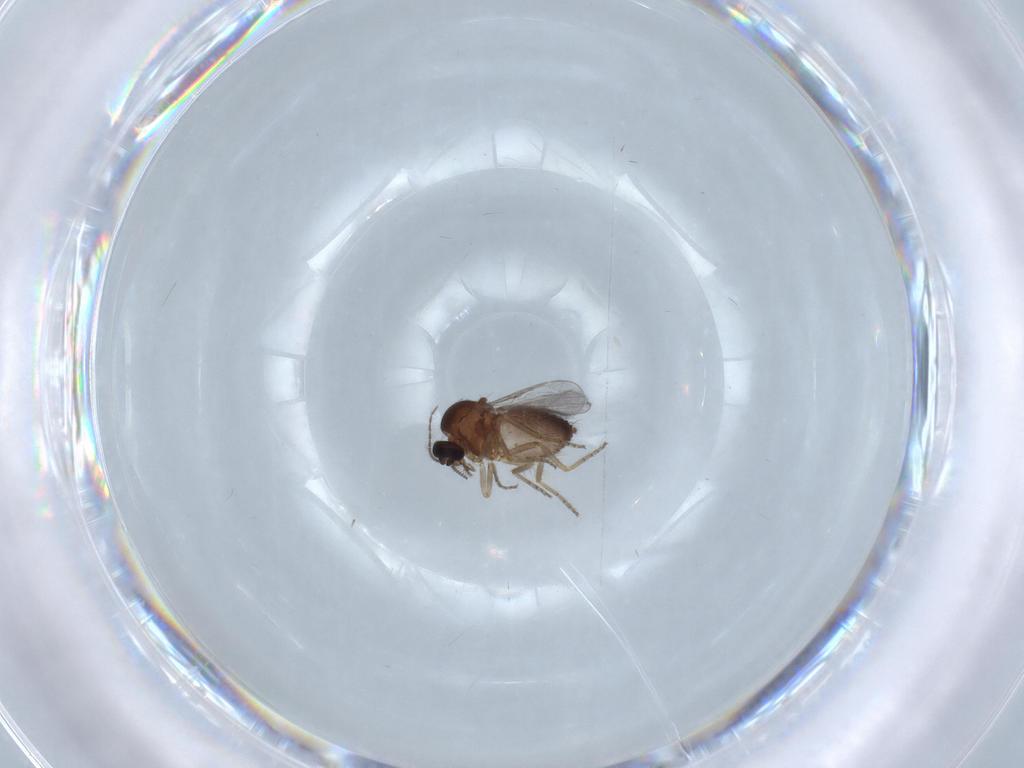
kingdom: Animalia
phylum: Arthropoda
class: Insecta
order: Diptera
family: Ceratopogonidae
